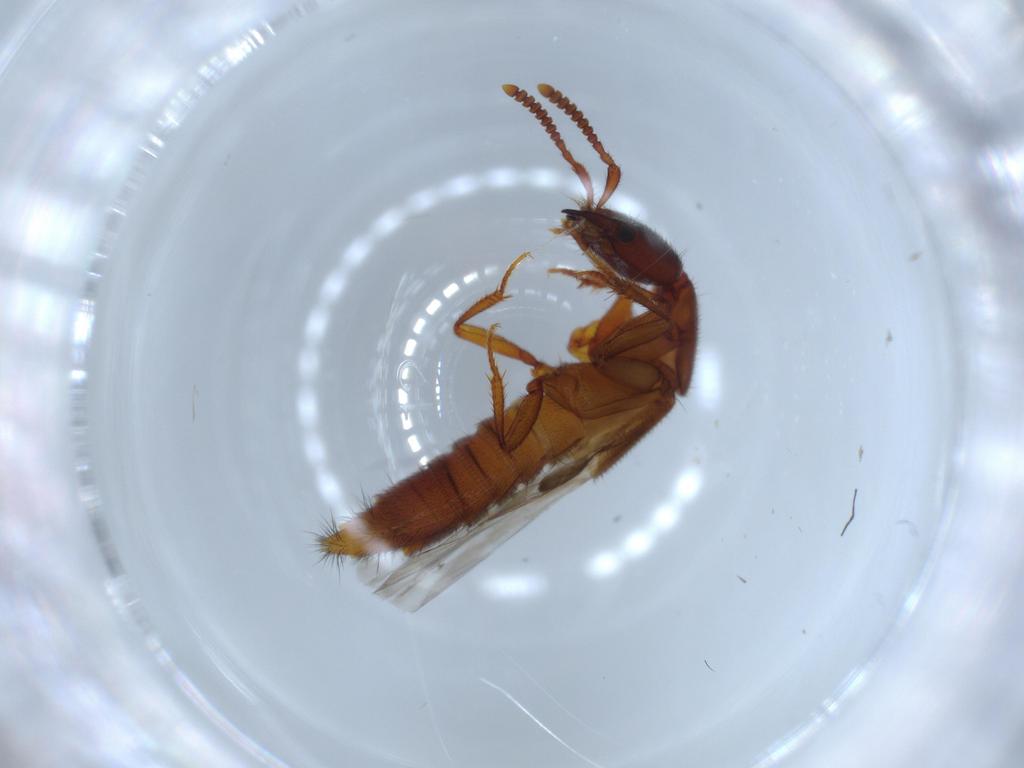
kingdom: Animalia
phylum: Arthropoda
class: Insecta
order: Coleoptera
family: Staphylinidae
